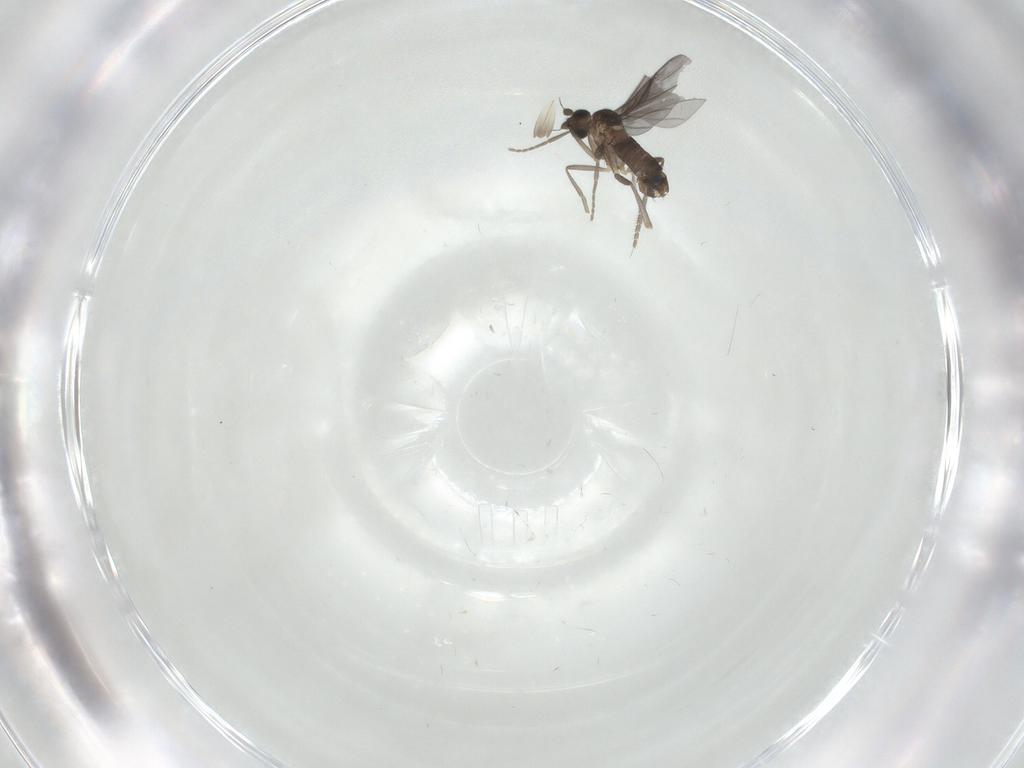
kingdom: Animalia
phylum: Arthropoda
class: Insecta
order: Diptera
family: Phoridae
